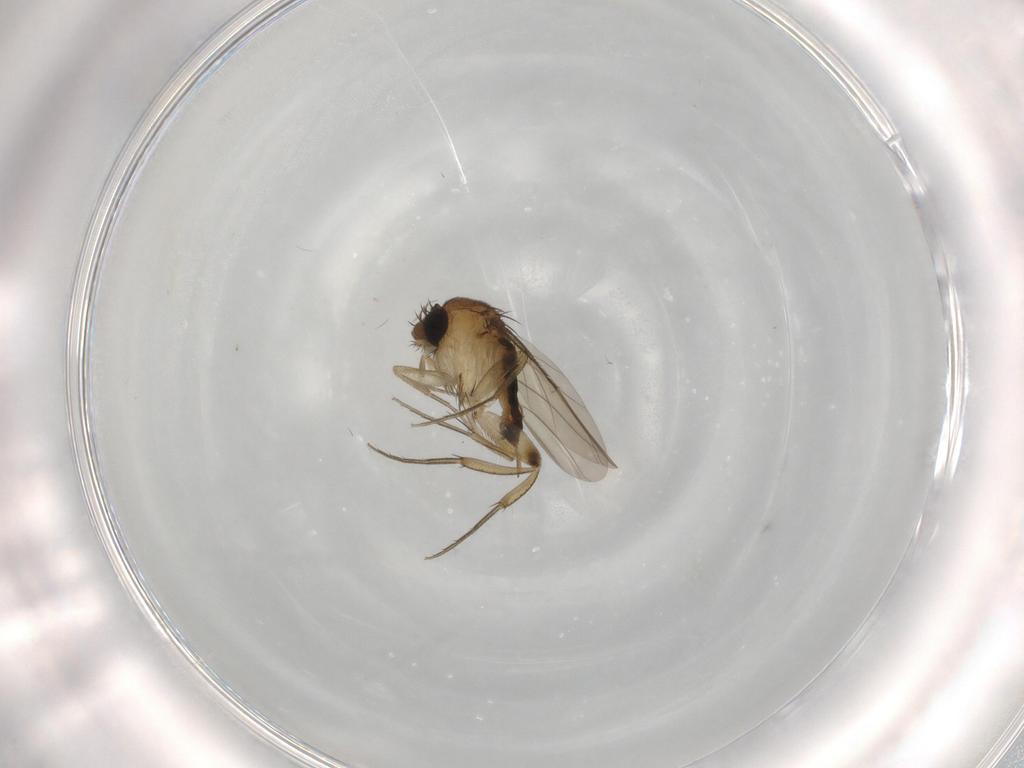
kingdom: Animalia
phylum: Arthropoda
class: Insecta
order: Diptera
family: Phoridae
